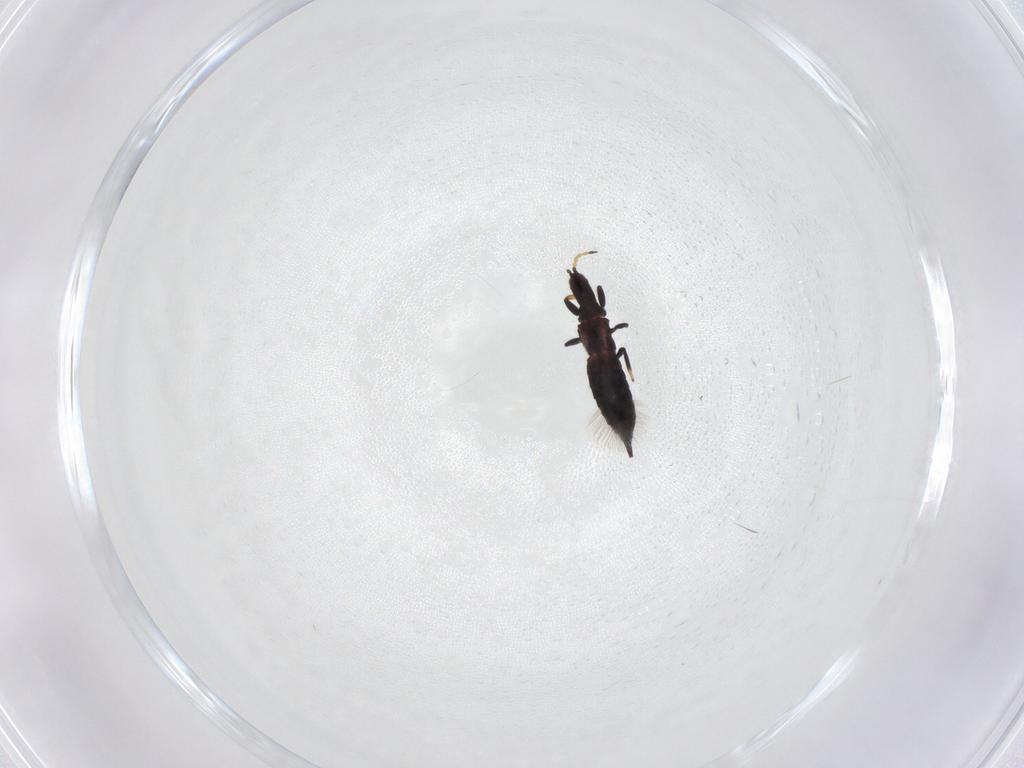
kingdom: Animalia
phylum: Arthropoda
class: Insecta
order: Thysanoptera
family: Phlaeothripidae
